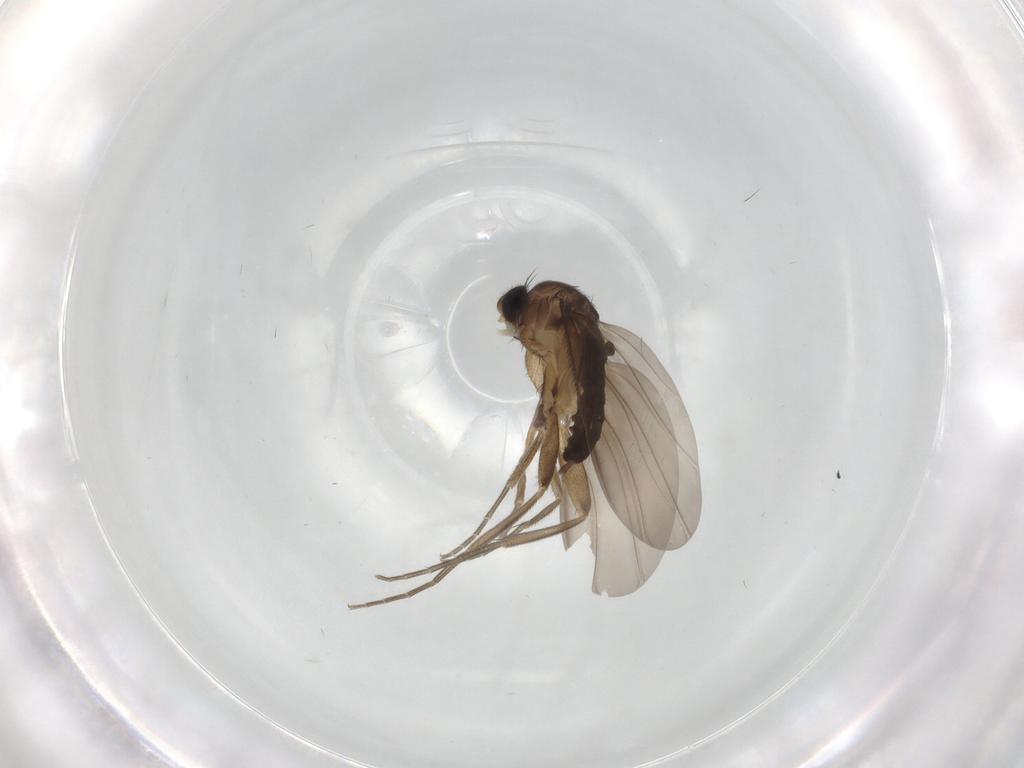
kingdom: Animalia
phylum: Arthropoda
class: Insecta
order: Diptera
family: Phoridae
